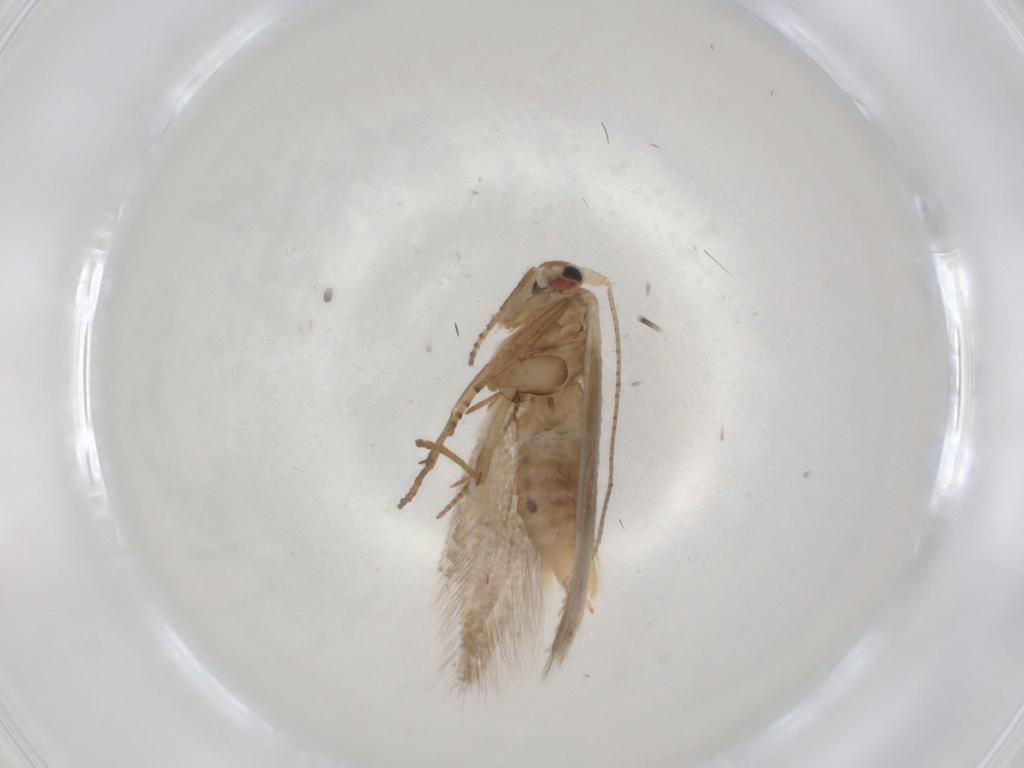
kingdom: Animalia
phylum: Arthropoda
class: Insecta
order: Lepidoptera
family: Bucculatricidae
